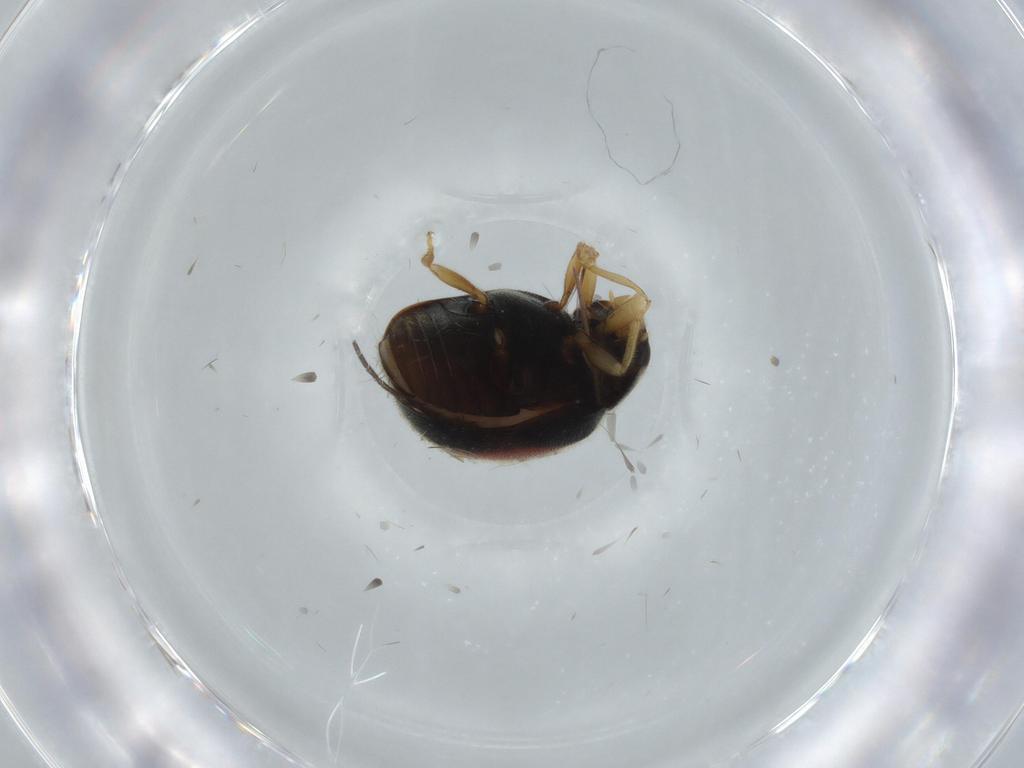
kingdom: Animalia
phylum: Arthropoda
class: Insecta
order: Coleoptera
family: Coccinellidae
